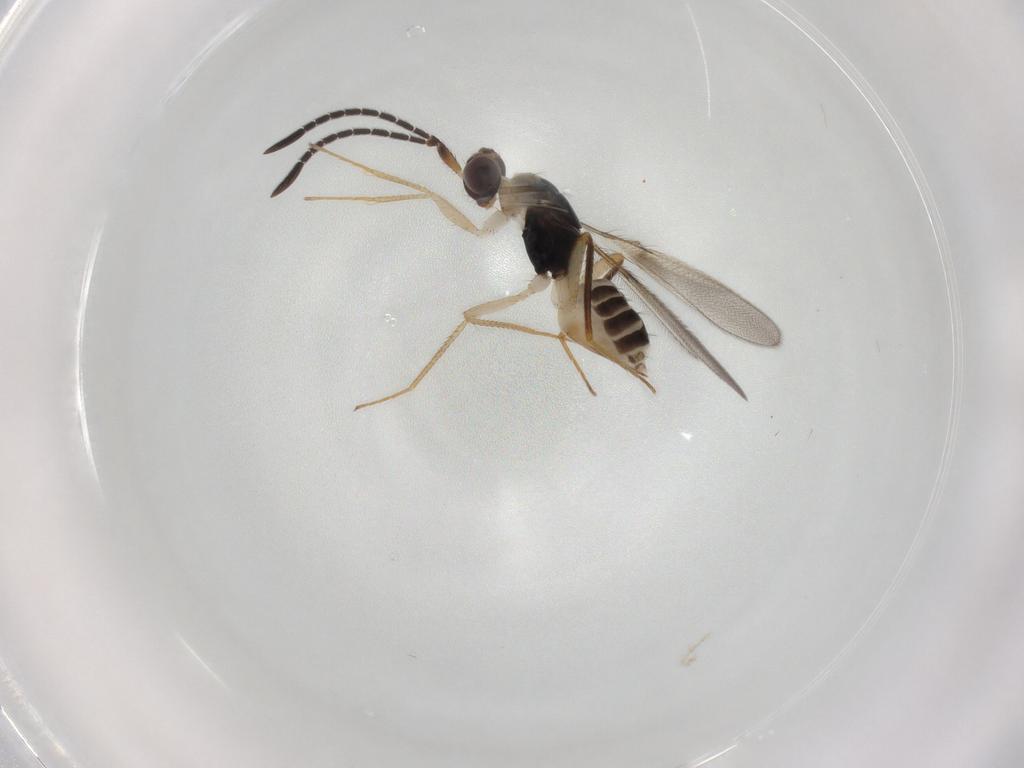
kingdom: Animalia
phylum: Arthropoda
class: Insecta
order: Hymenoptera
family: Mymaridae
